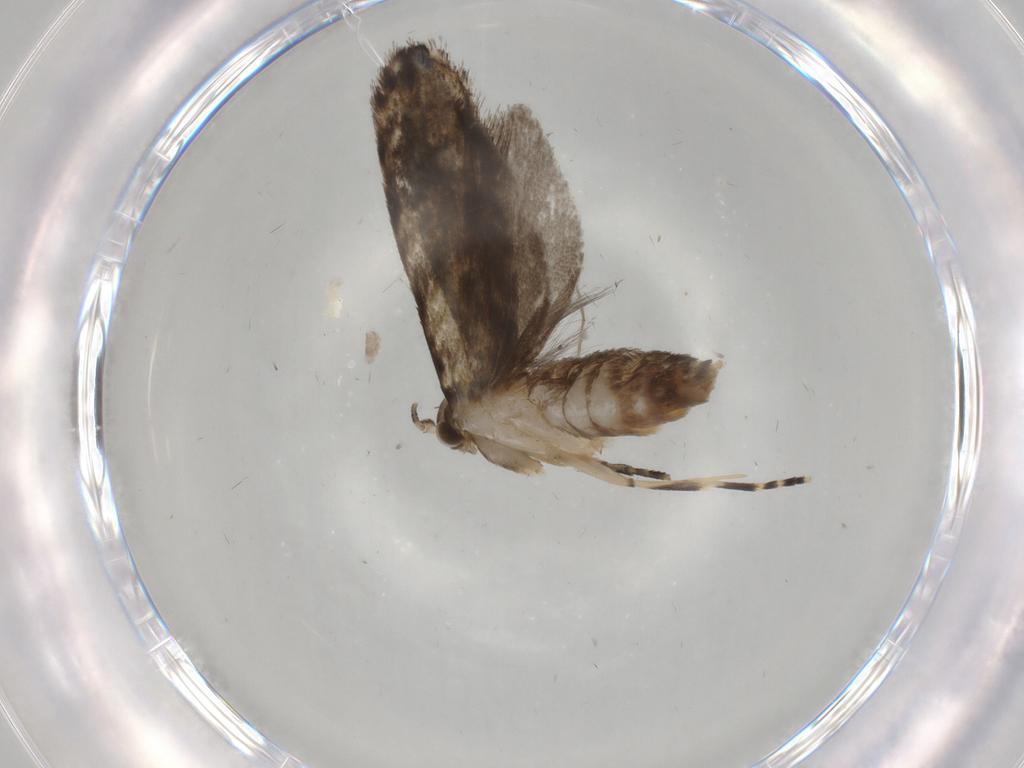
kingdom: Animalia
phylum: Arthropoda
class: Insecta
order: Lepidoptera
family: Tineidae
